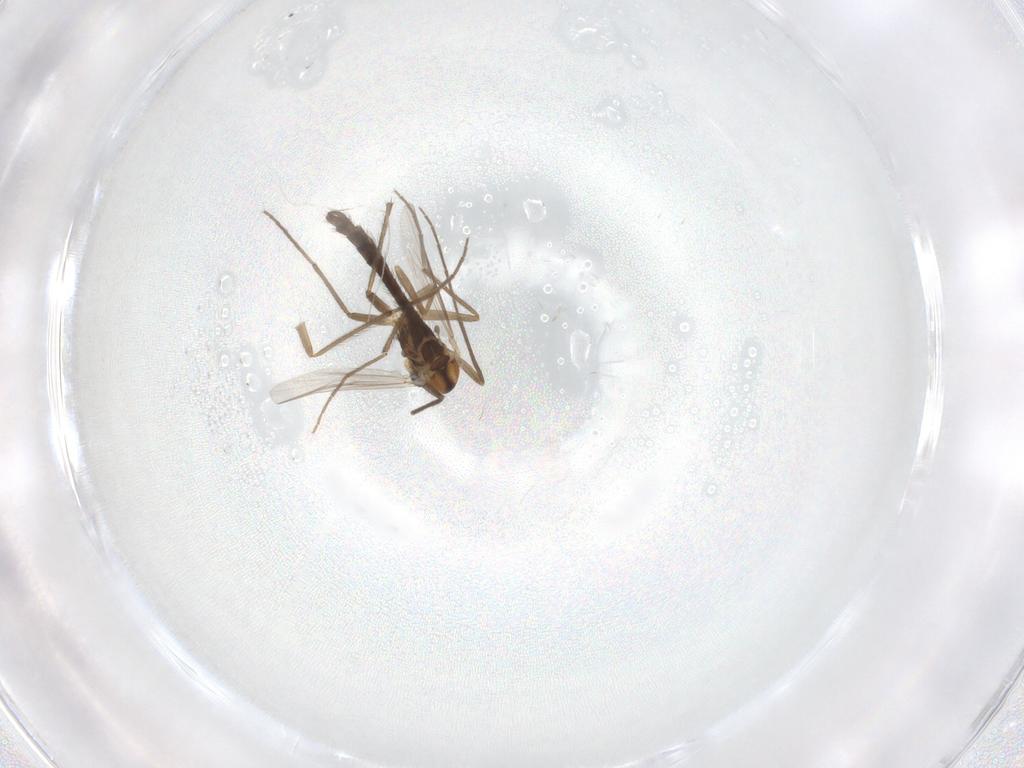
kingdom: Animalia
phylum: Arthropoda
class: Insecta
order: Diptera
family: Chironomidae
